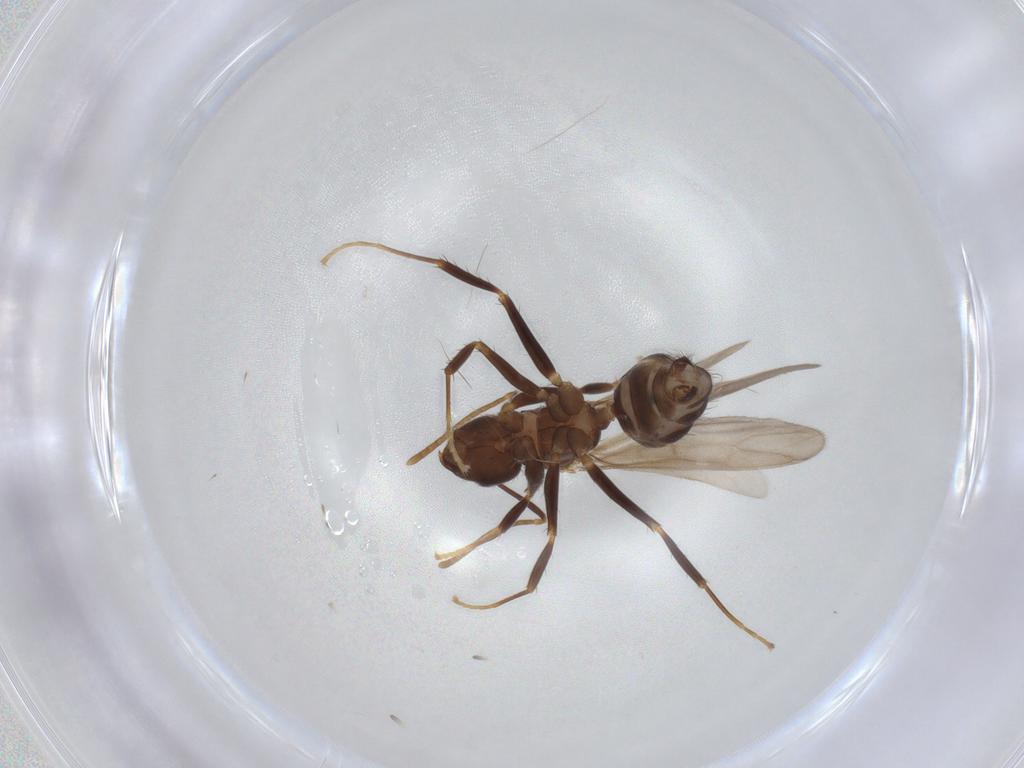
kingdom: Animalia
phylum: Arthropoda
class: Insecta
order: Hymenoptera
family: Formicidae
